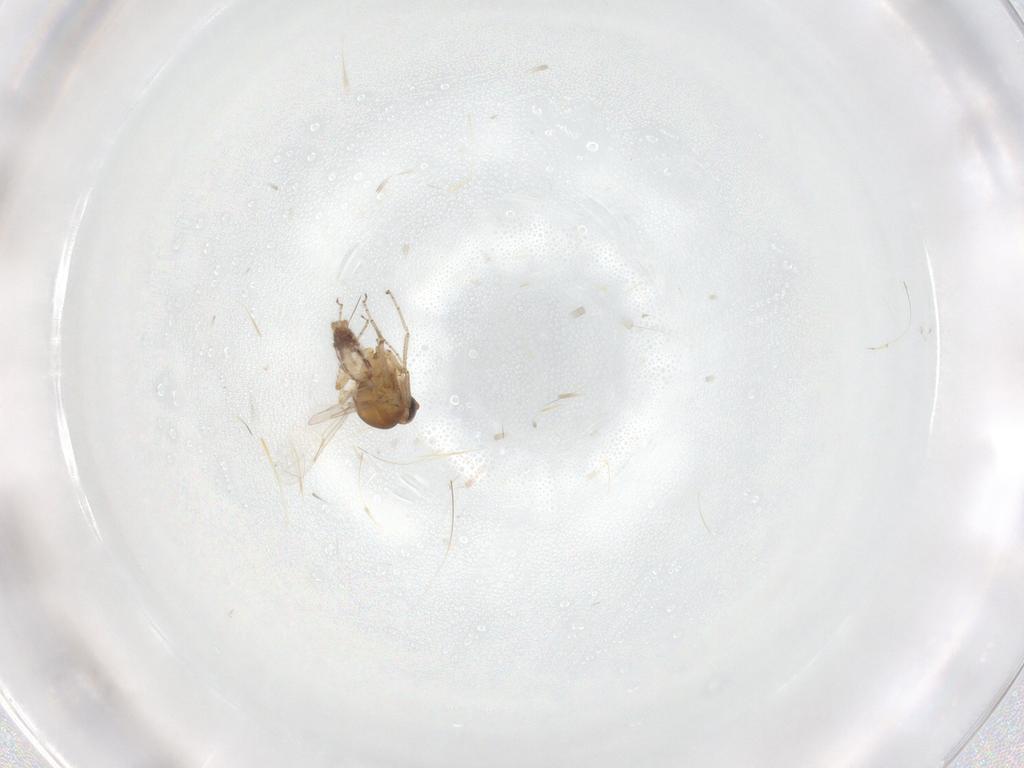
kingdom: Animalia
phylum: Arthropoda
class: Insecta
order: Diptera
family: Ceratopogonidae
